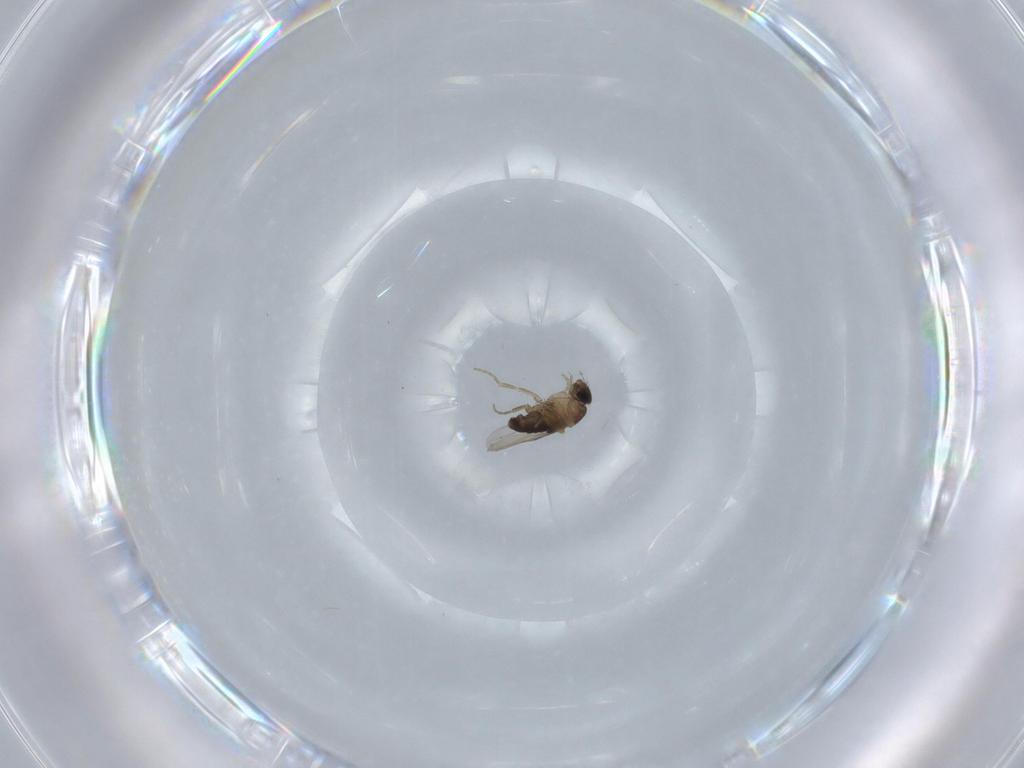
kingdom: Animalia
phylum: Arthropoda
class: Insecta
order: Diptera
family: Phoridae
